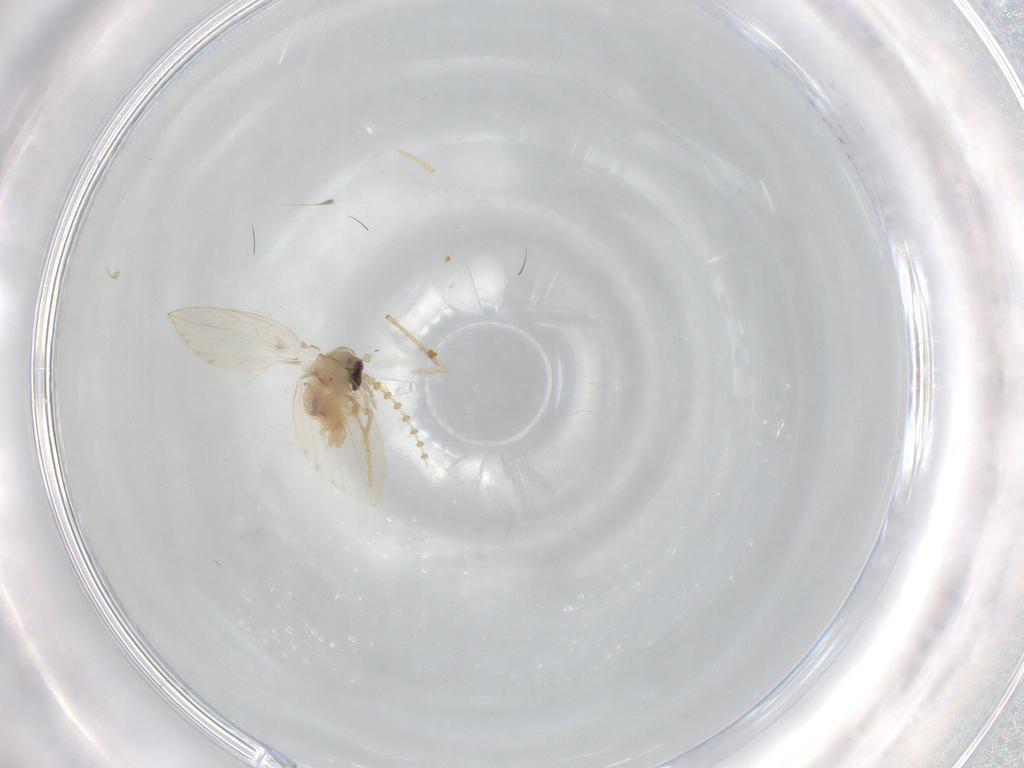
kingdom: Animalia
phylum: Arthropoda
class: Insecta
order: Diptera
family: Psychodidae
